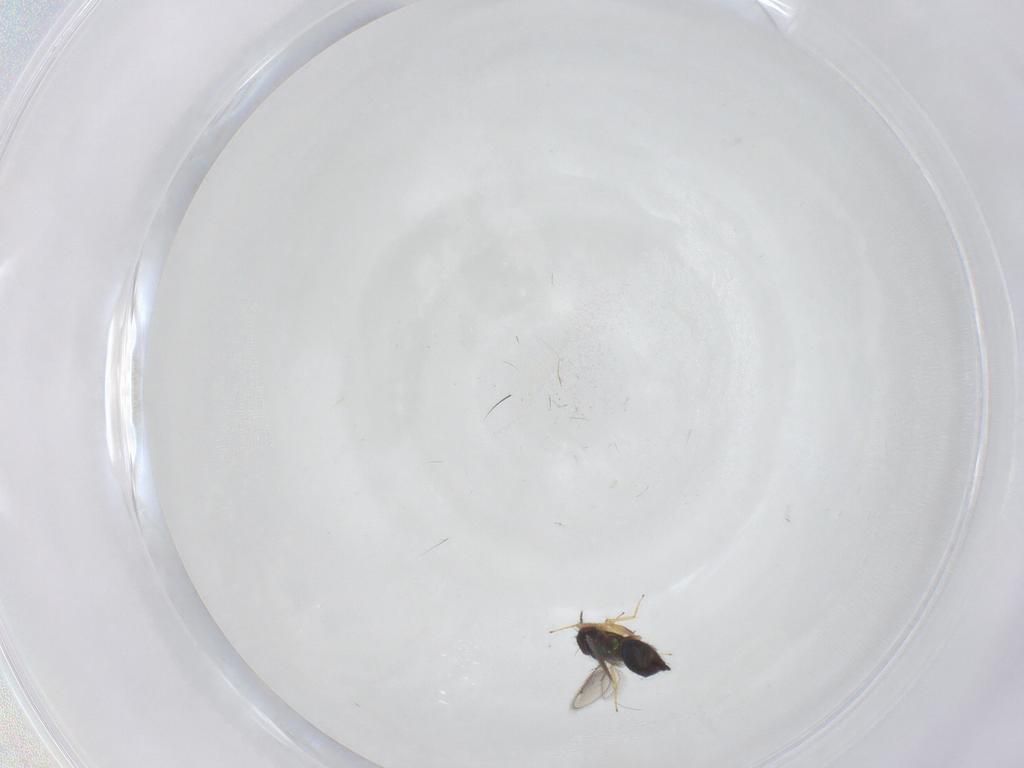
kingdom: Animalia
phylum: Arthropoda
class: Insecta
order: Hymenoptera
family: Eulophidae
